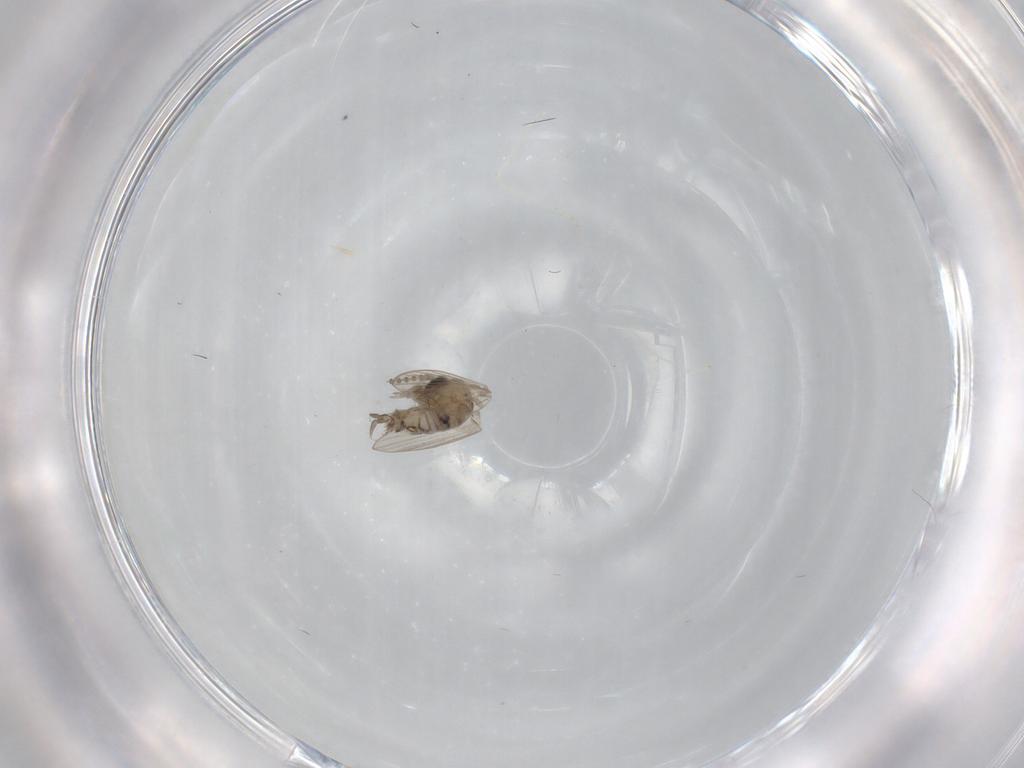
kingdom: Animalia
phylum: Arthropoda
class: Insecta
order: Diptera
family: Psychodidae
